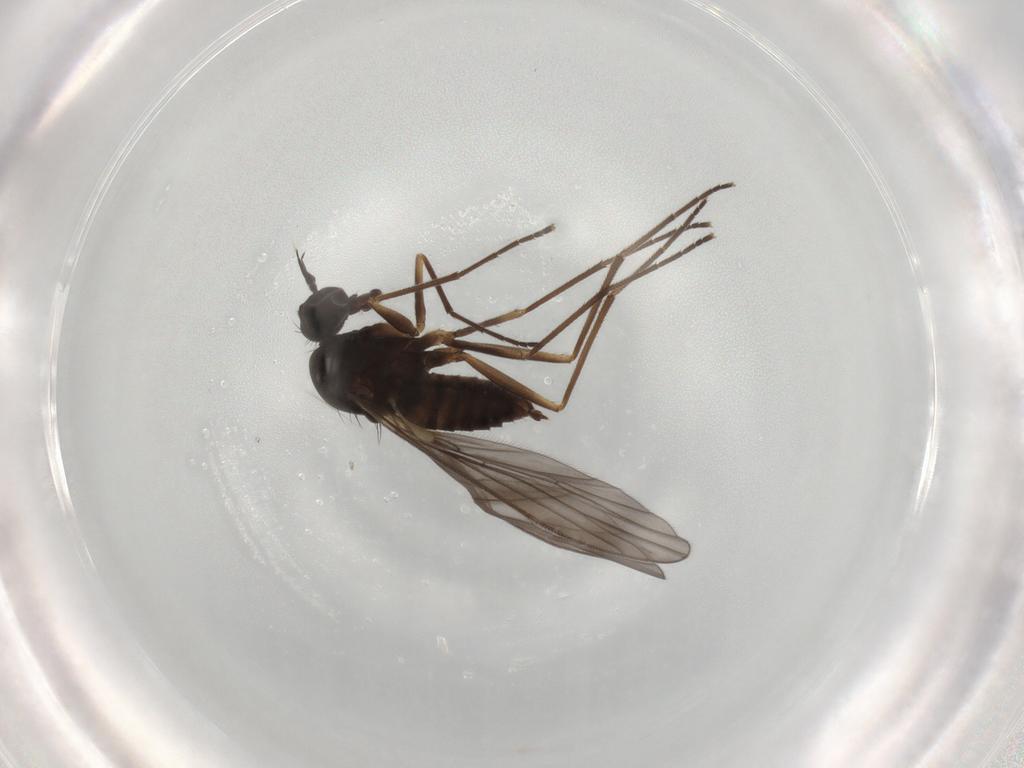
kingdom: Animalia
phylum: Arthropoda
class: Insecta
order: Diptera
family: Empididae
